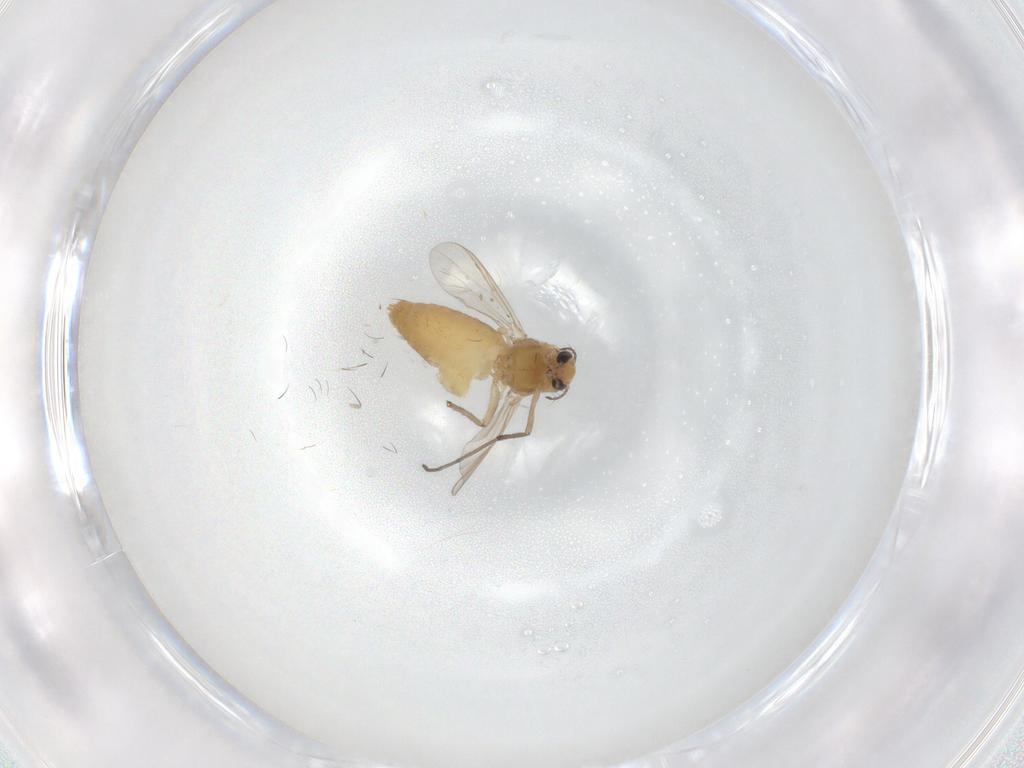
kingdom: Animalia
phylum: Arthropoda
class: Insecta
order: Diptera
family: Chironomidae
